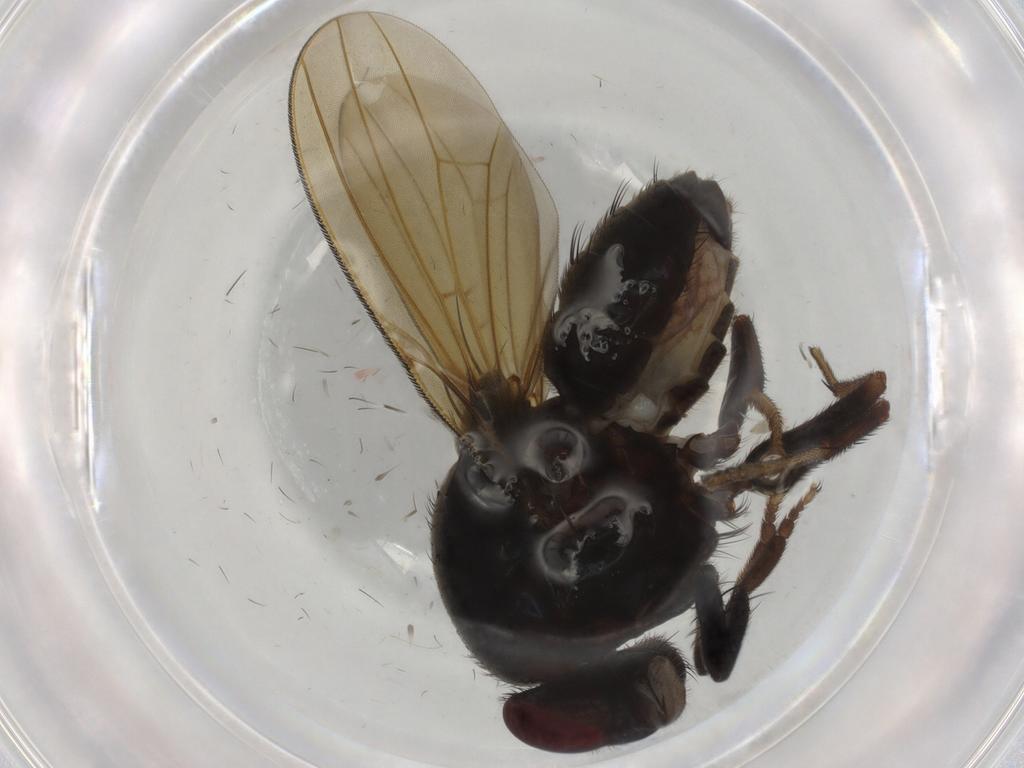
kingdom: Animalia
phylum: Arthropoda
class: Insecta
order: Diptera
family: Lauxaniidae
